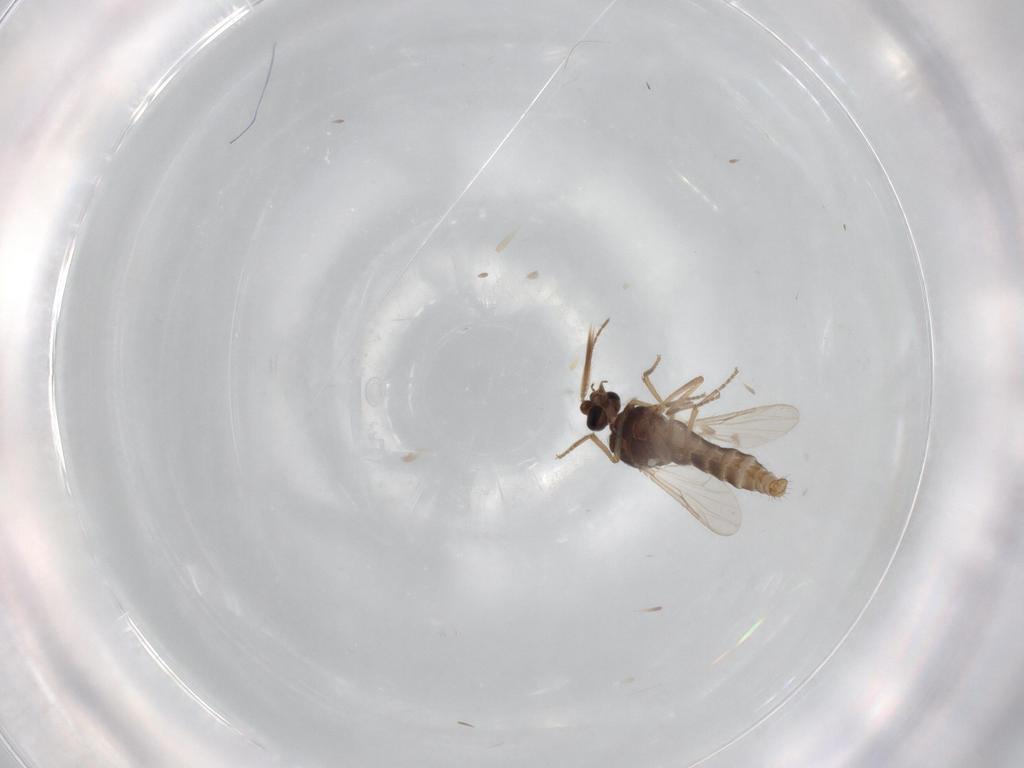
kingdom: Animalia
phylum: Arthropoda
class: Insecta
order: Diptera
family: Ceratopogonidae
